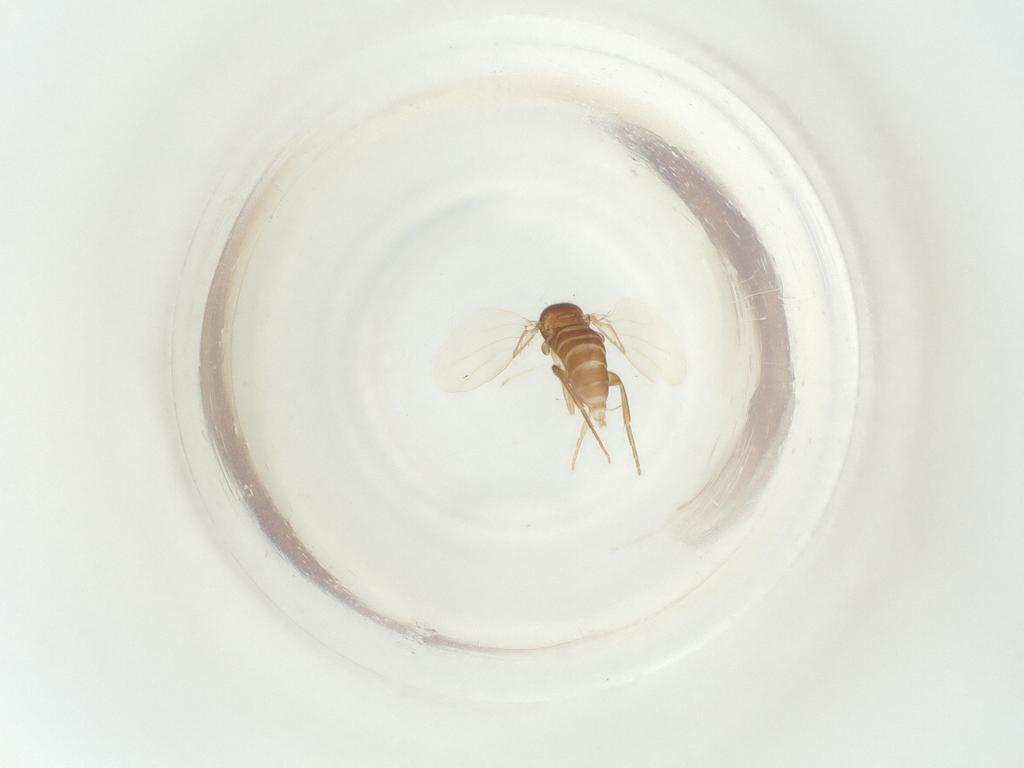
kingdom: Animalia
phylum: Arthropoda
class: Insecta
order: Diptera
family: Phoridae
